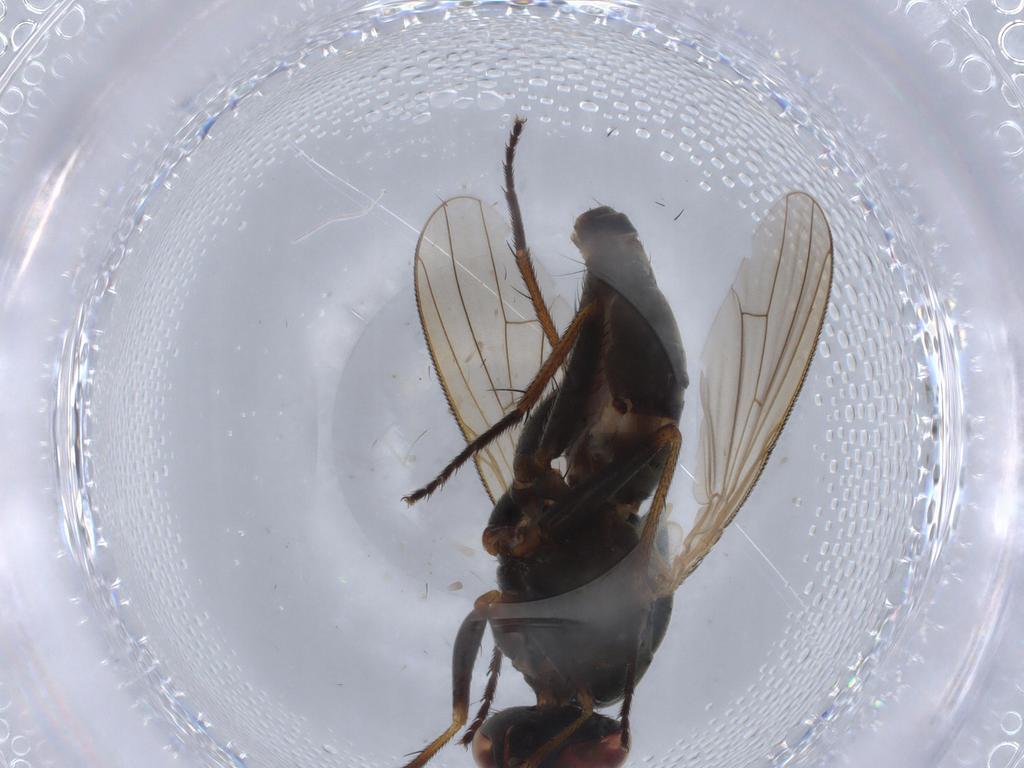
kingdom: Animalia
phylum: Arthropoda
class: Insecta
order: Diptera
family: Dolichopodidae
